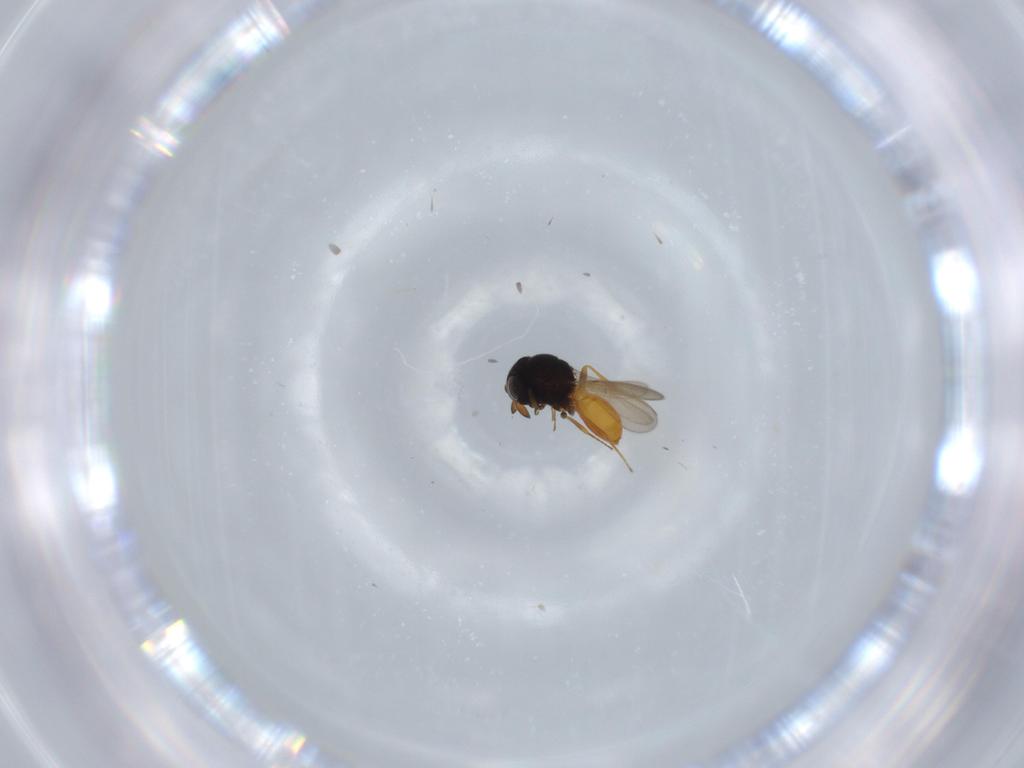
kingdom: Animalia
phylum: Arthropoda
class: Insecta
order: Hymenoptera
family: Scelionidae
